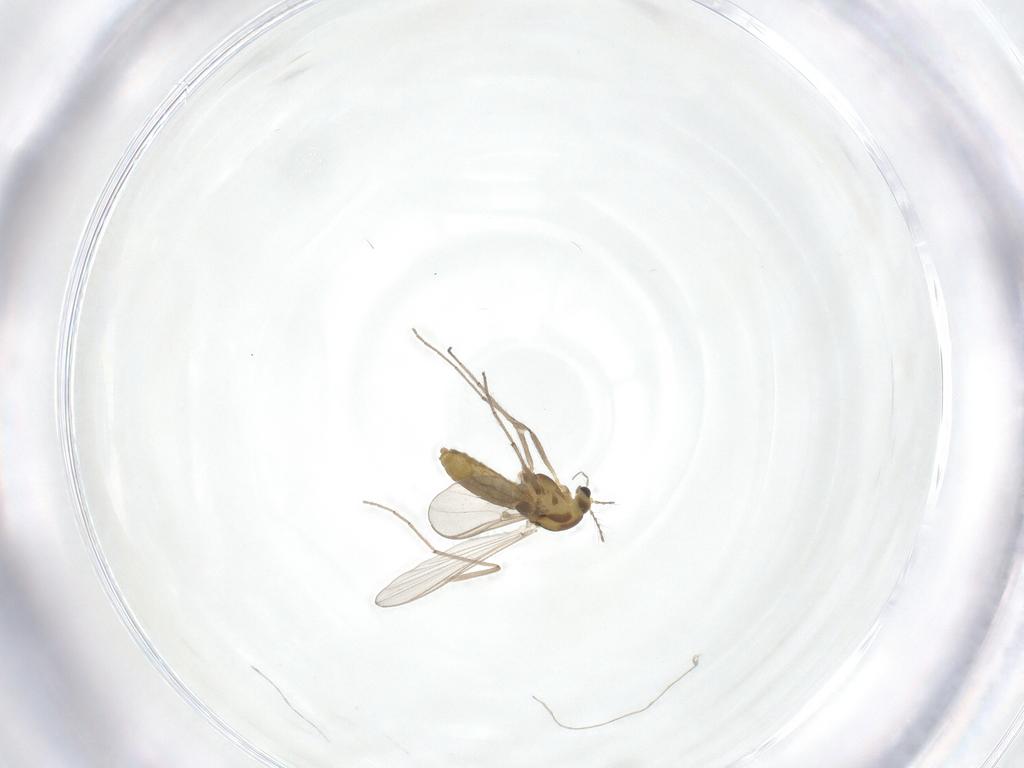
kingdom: Animalia
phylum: Arthropoda
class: Insecta
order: Diptera
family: Chironomidae
